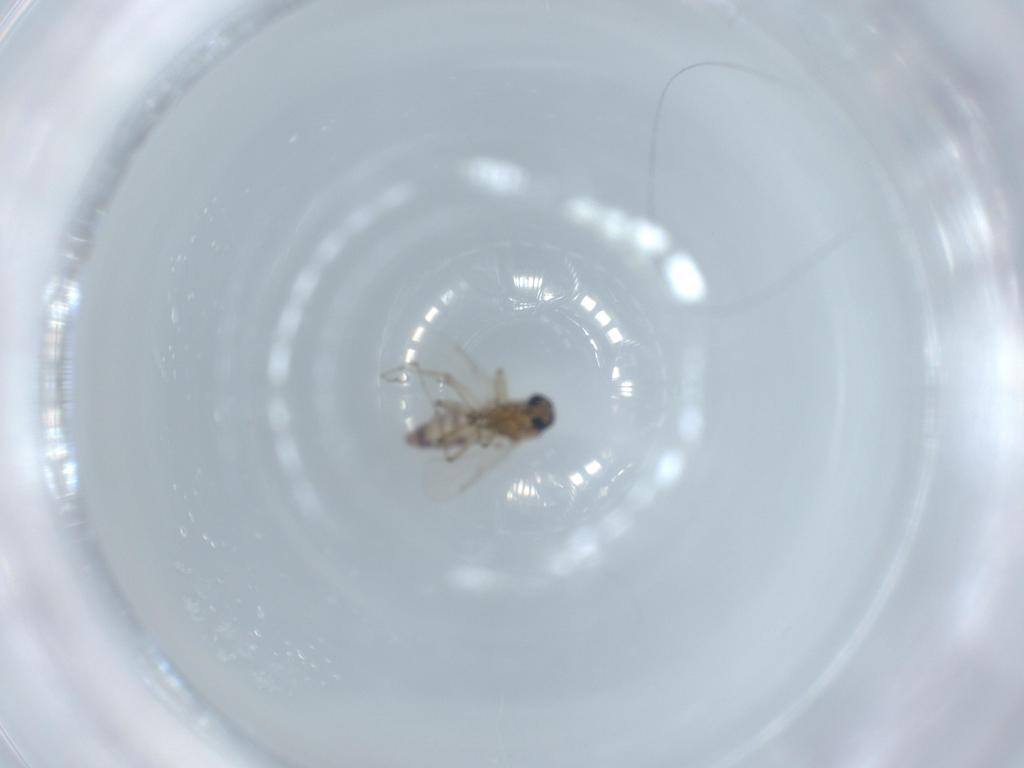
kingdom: Animalia
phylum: Arthropoda
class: Insecta
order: Diptera
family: Ceratopogonidae
